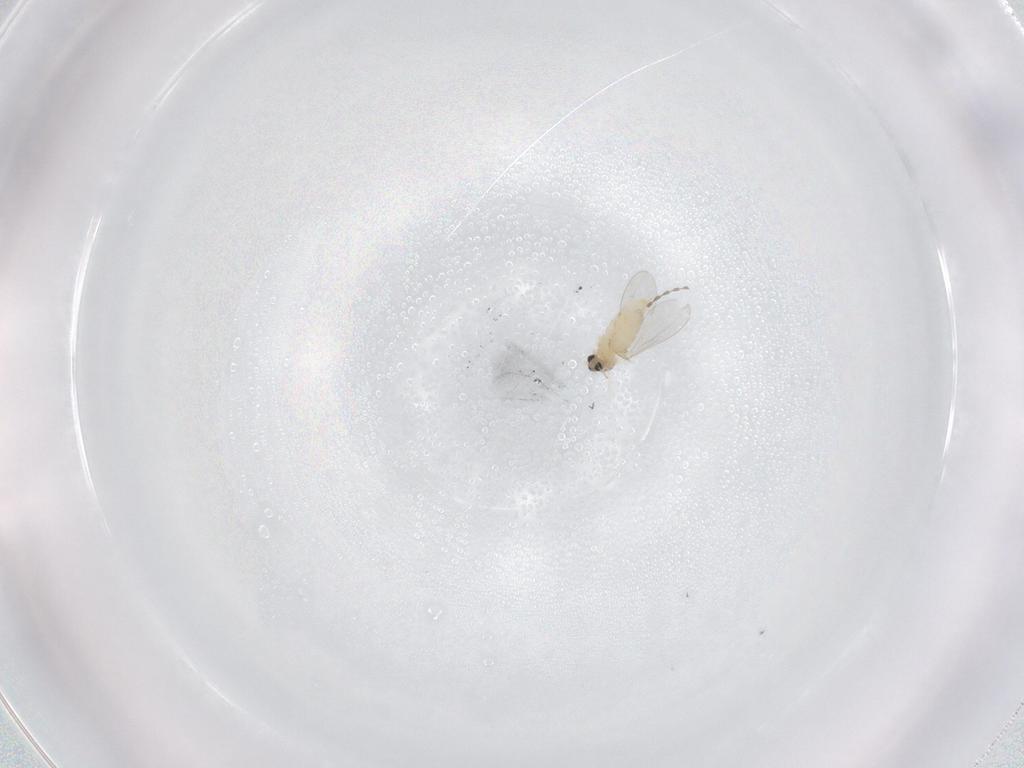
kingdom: Animalia
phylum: Arthropoda
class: Insecta
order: Diptera
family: Cecidomyiidae
